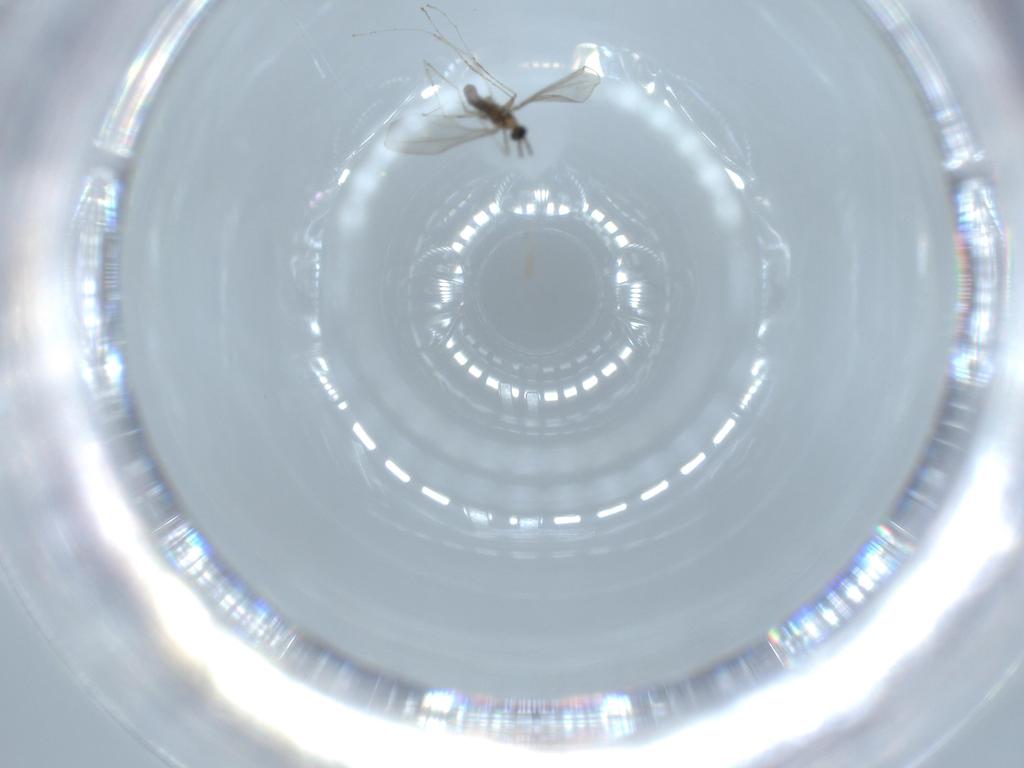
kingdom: Animalia
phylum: Arthropoda
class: Insecta
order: Diptera
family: Cecidomyiidae
